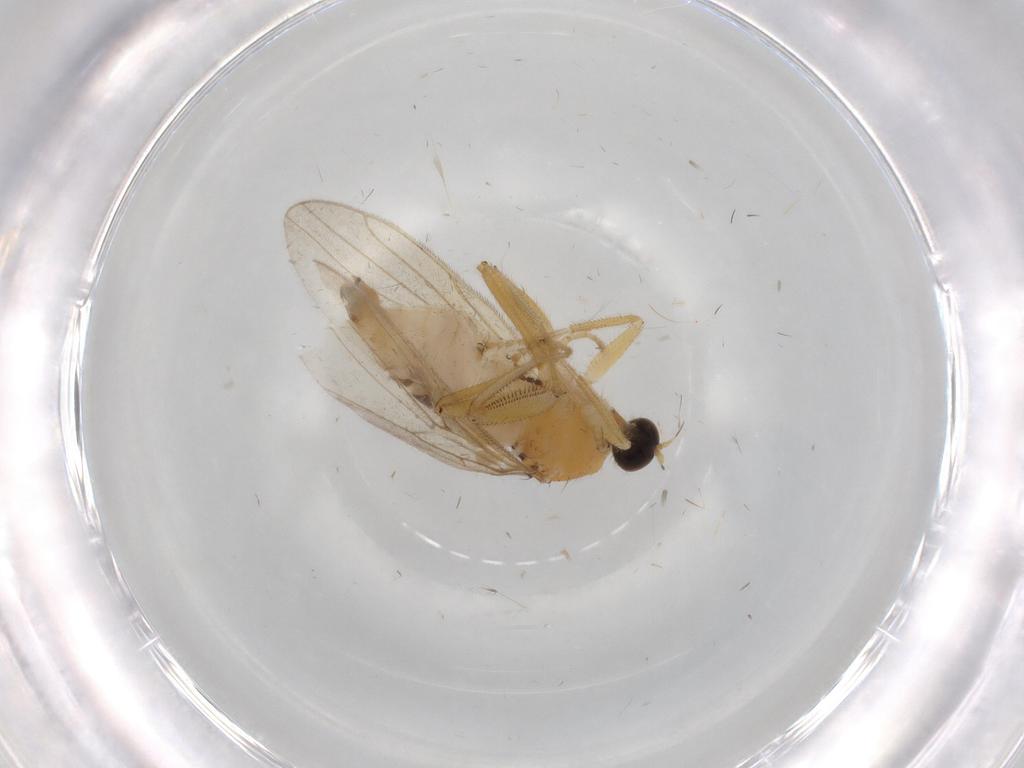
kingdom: Animalia
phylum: Arthropoda
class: Insecta
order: Diptera
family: Hybotidae
